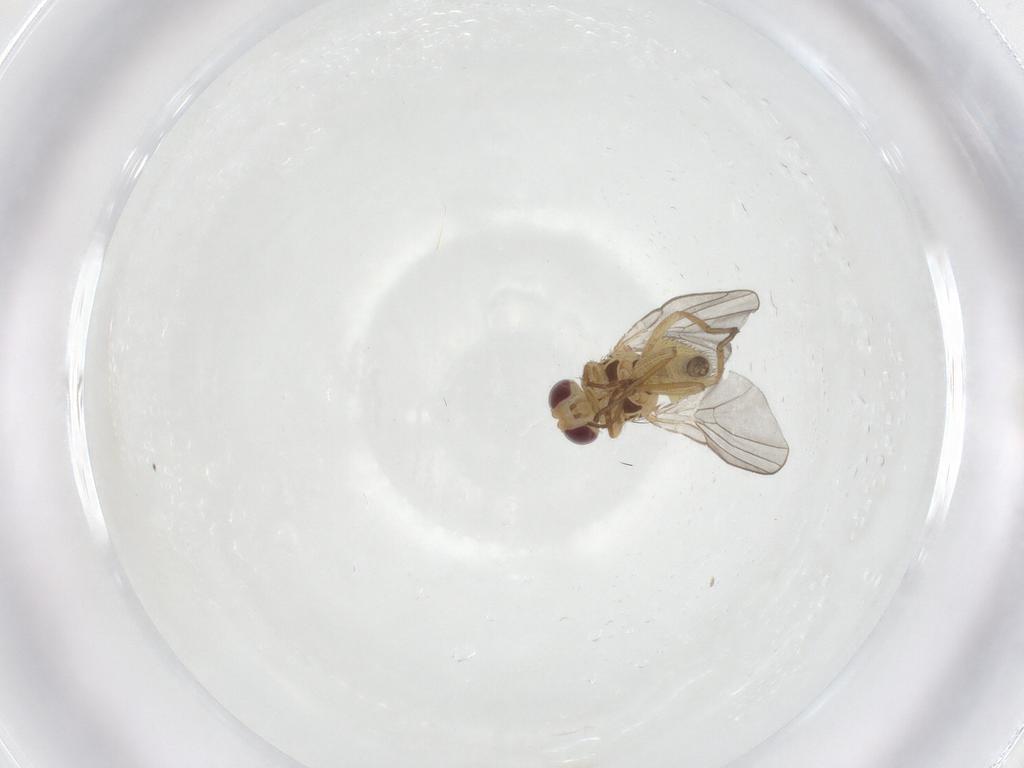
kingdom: Animalia
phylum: Arthropoda
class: Insecta
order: Diptera
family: Agromyzidae
